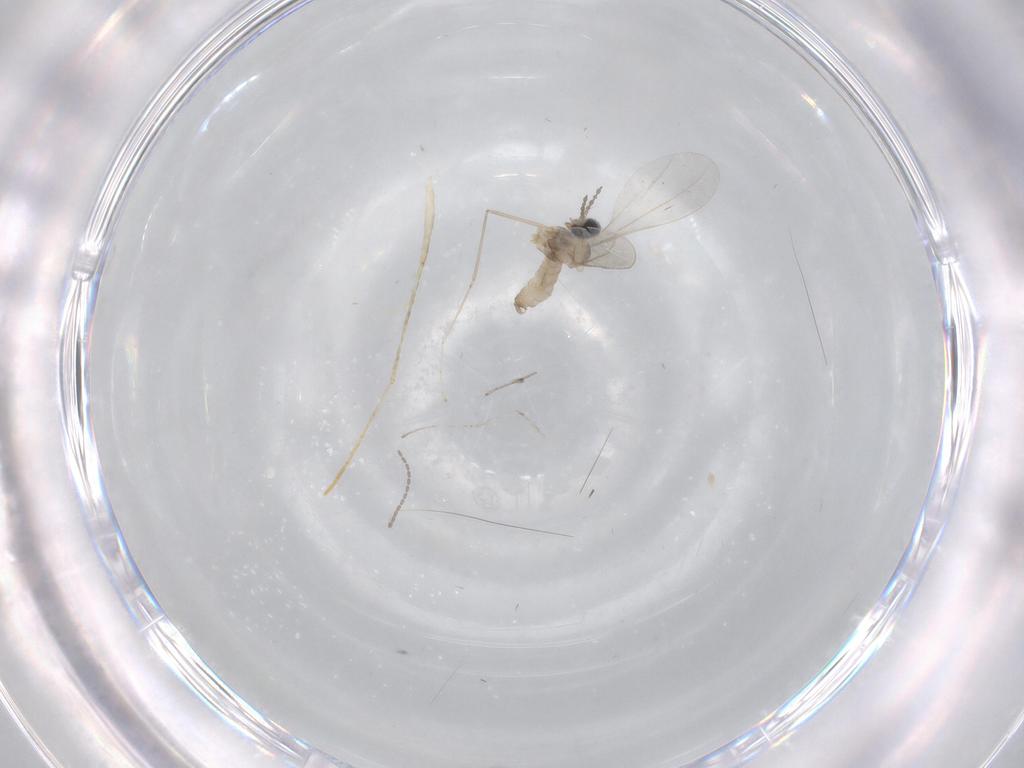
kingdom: Animalia
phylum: Arthropoda
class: Insecta
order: Diptera
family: Cecidomyiidae
